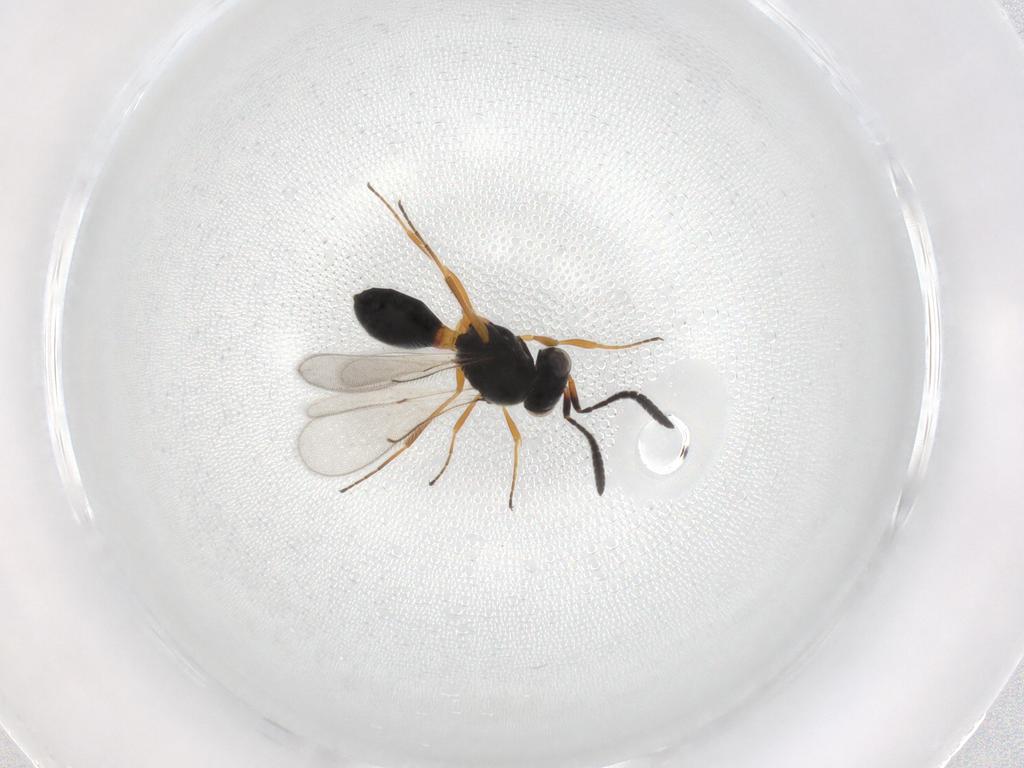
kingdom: Animalia
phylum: Arthropoda
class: Insecta
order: Hymenoptera
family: Scelionidae
